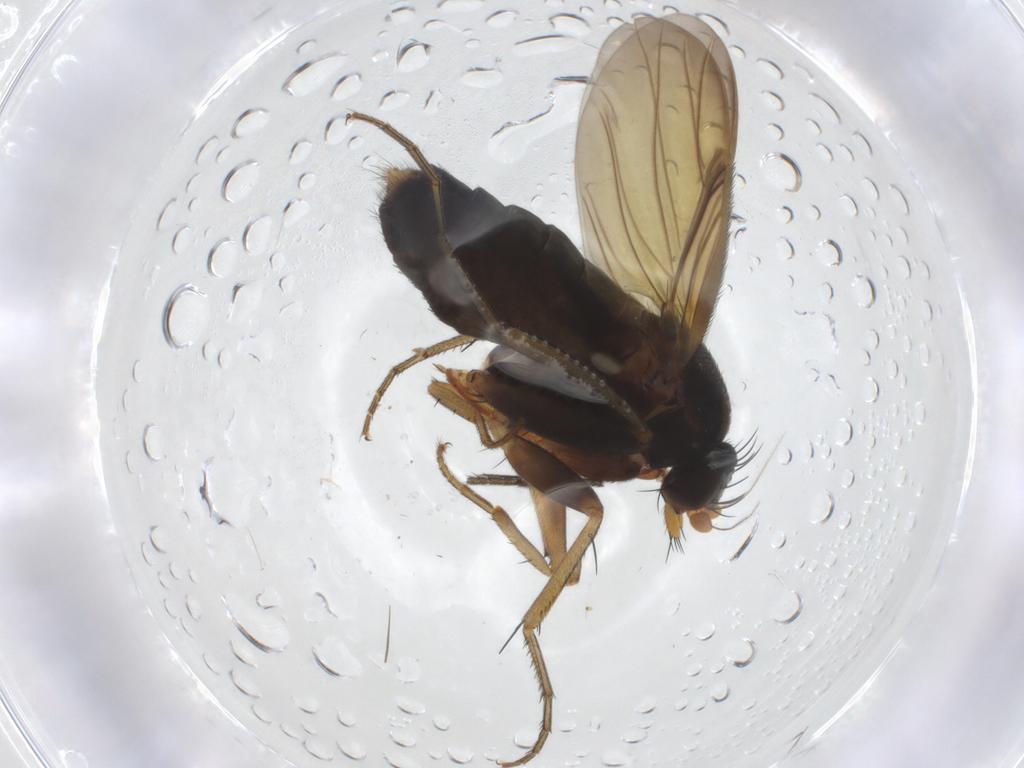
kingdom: Animalia
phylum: Arthropoda
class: Insecta
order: Diptera
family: Phoridae
